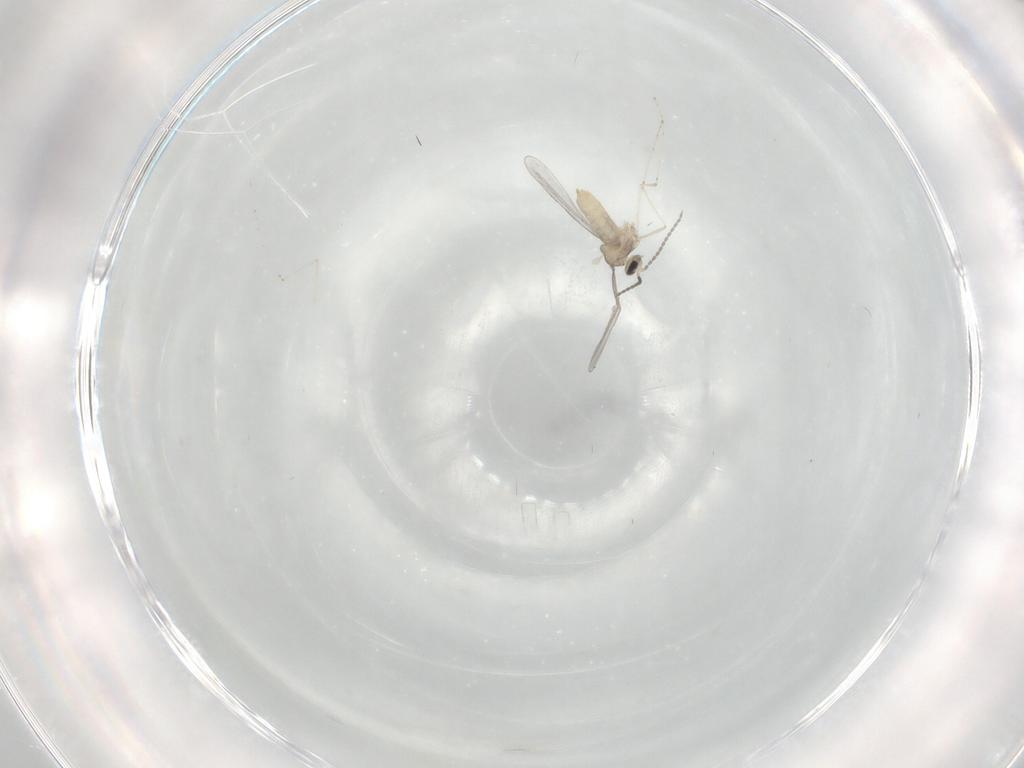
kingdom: Animalia
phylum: Arthropoda
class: Insecta
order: Diptera
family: Cecidomyiidae
